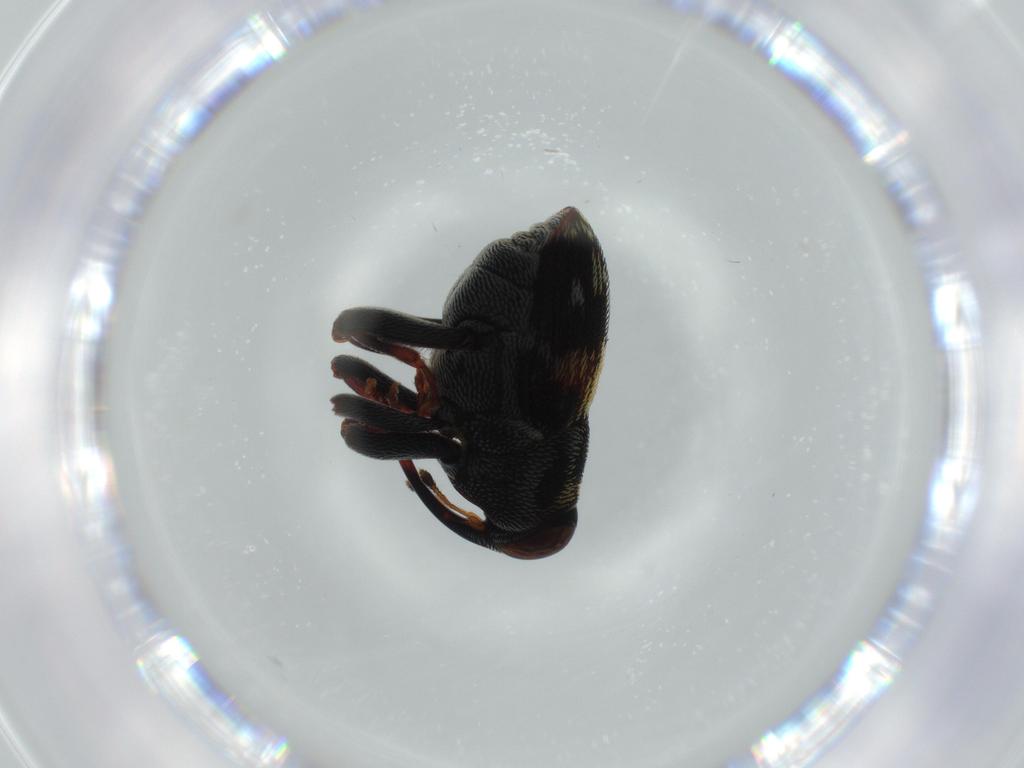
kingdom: Animalia
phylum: Arthropoda
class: Insecta
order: Coleoptera
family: Curculionidae
